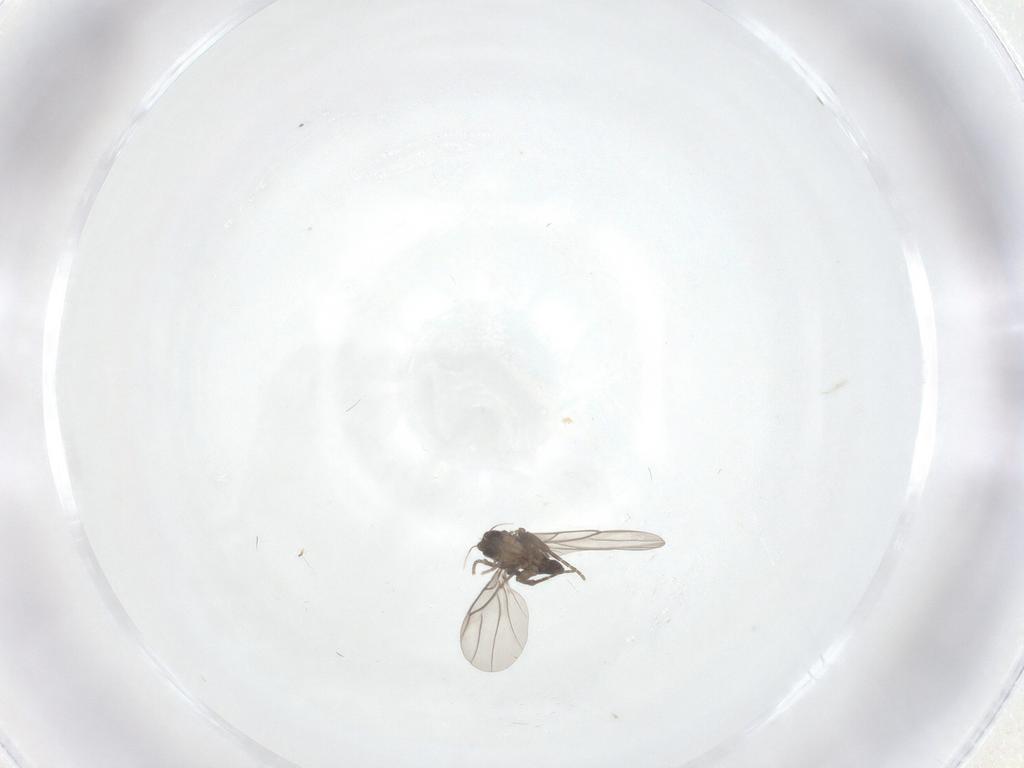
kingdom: Animalia
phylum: Arthropoda
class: Insecta
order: Diptera
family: Phoridae
